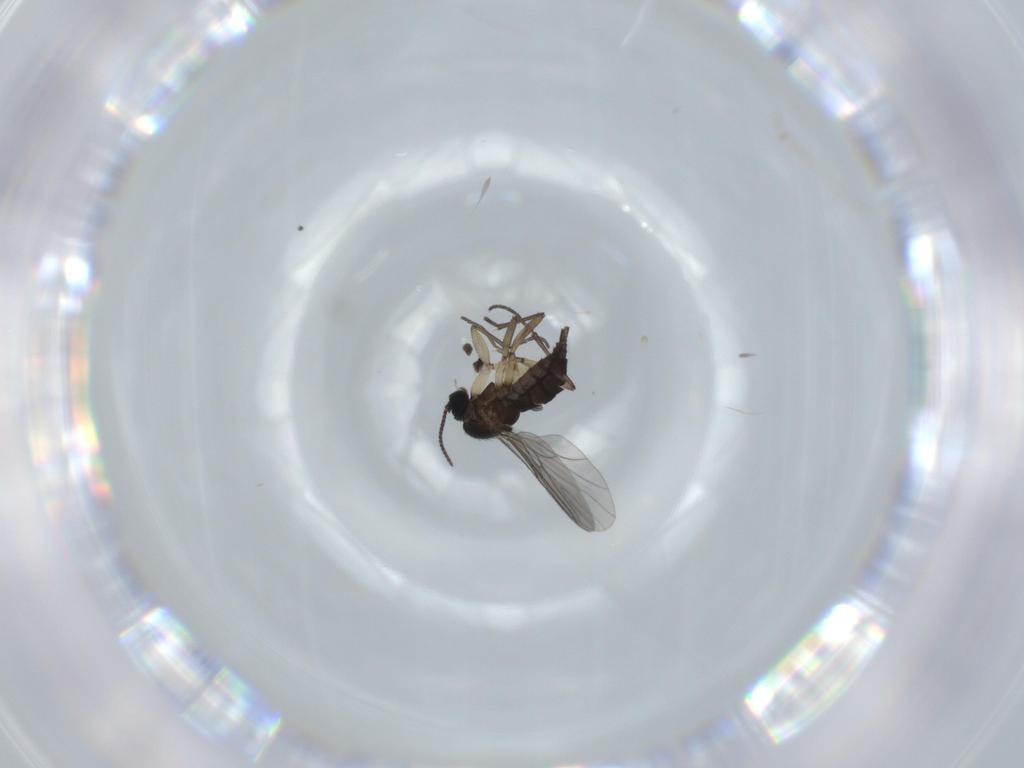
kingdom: Animalia
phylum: Arthropoda
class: Insecta
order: Diptera
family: Sciaridae
